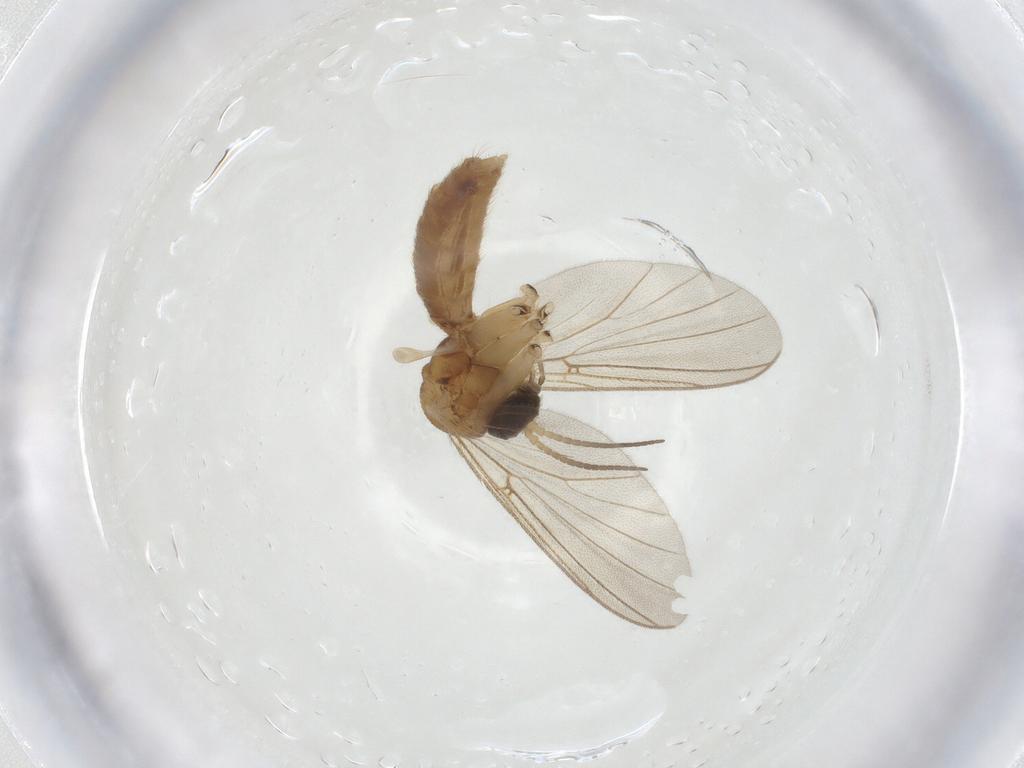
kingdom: Animalia
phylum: Arthropoda
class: Insecta
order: Diptera
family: Mycetophilidae
